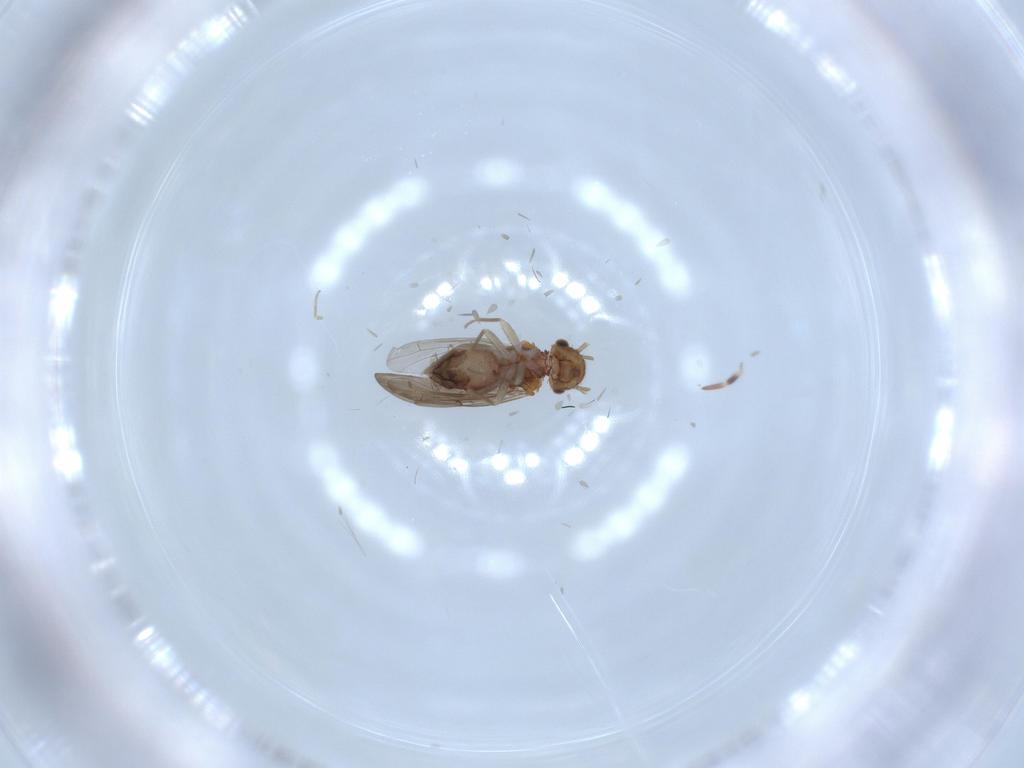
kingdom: Animalia
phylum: Arthropoda
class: Insecta
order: Psocodea
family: Ectopsocidae
